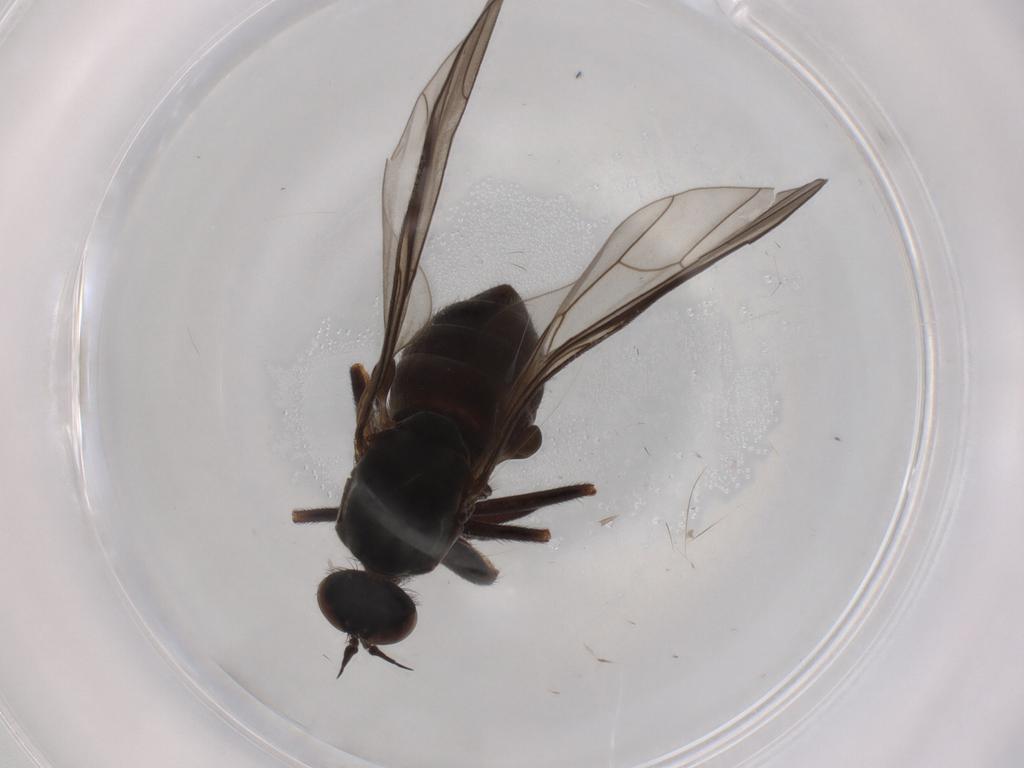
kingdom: Animalia
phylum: Arthropoda
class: Insecta
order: Diptera
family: Empididae
